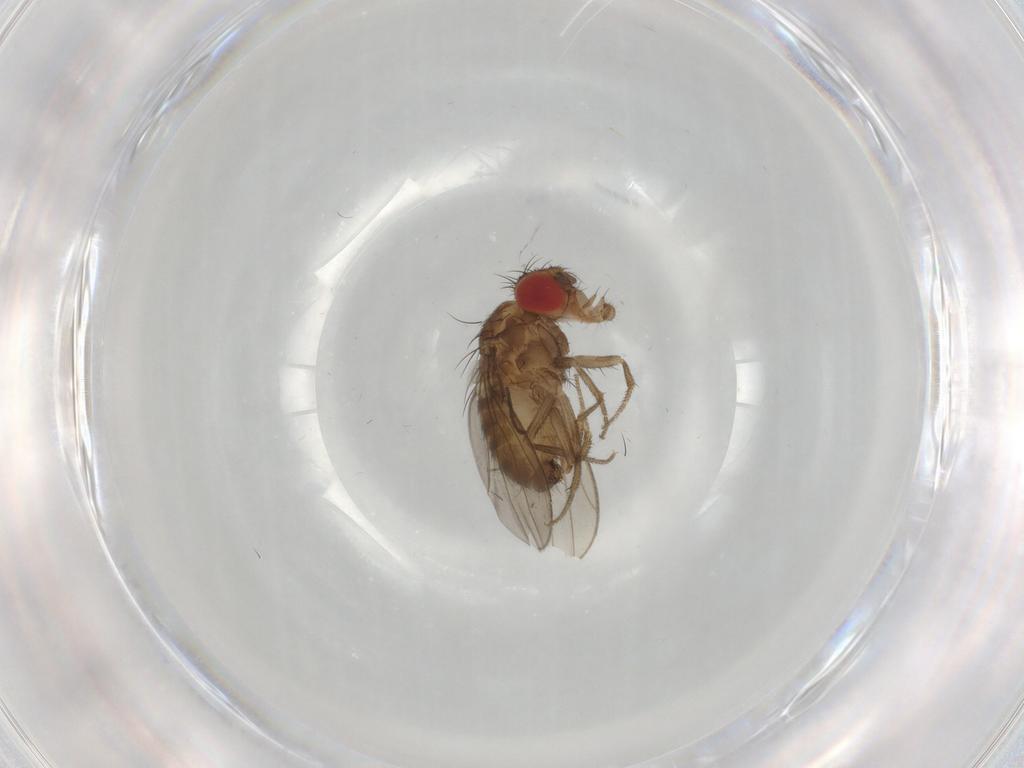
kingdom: Animalia
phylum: Arthropoda
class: Insecta
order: Diptera
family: Drosophilidae
